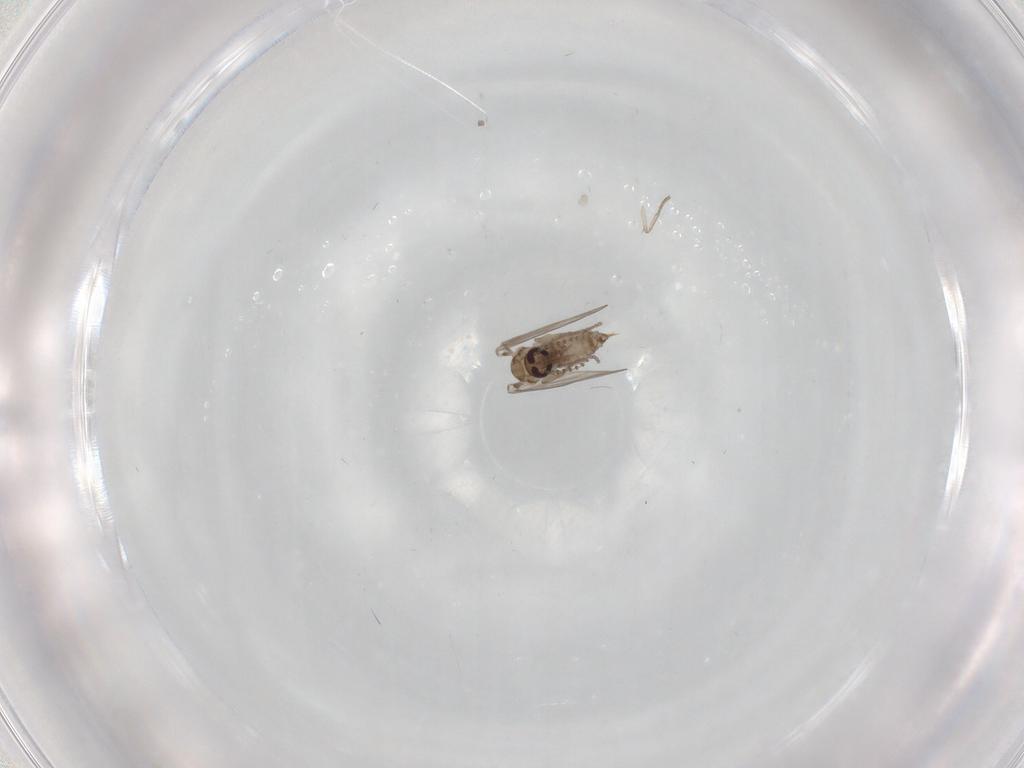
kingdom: Animalia
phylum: Arthropoda
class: Insecta
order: Diptera
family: Psychodidae
